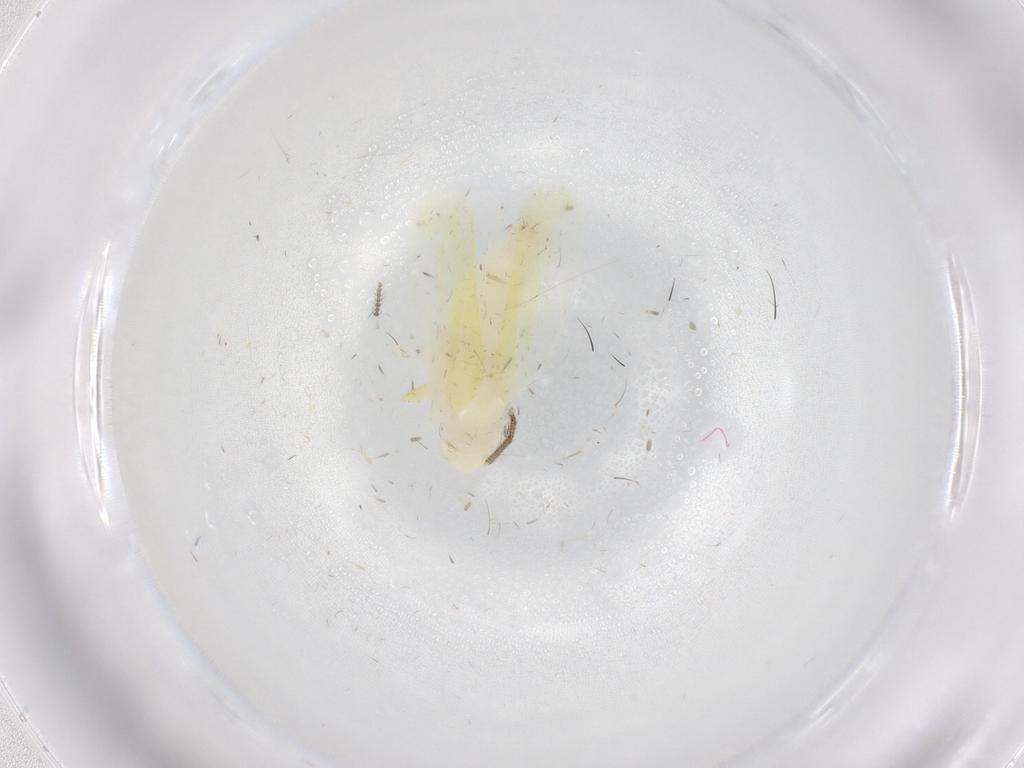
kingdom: Animalia
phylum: Arthropoda
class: Insecta
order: Hemiptera
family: Cicadellidae
